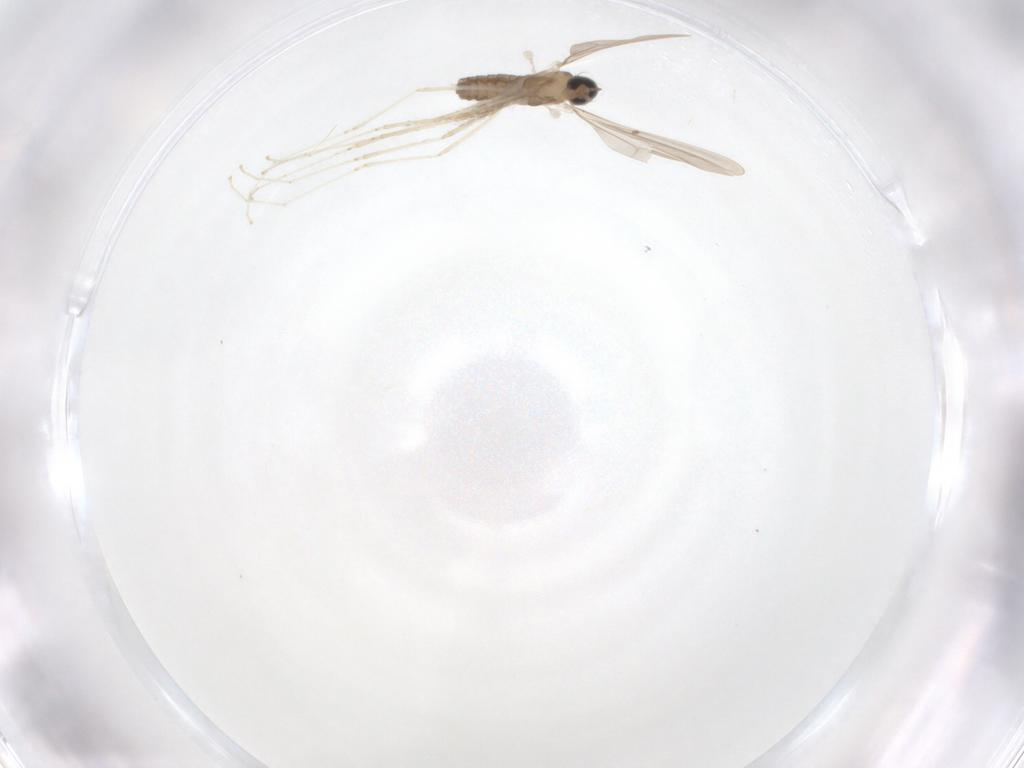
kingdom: Animalia
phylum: Arthropoda
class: Insecta
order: Diptera
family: Cecidomyiidae
